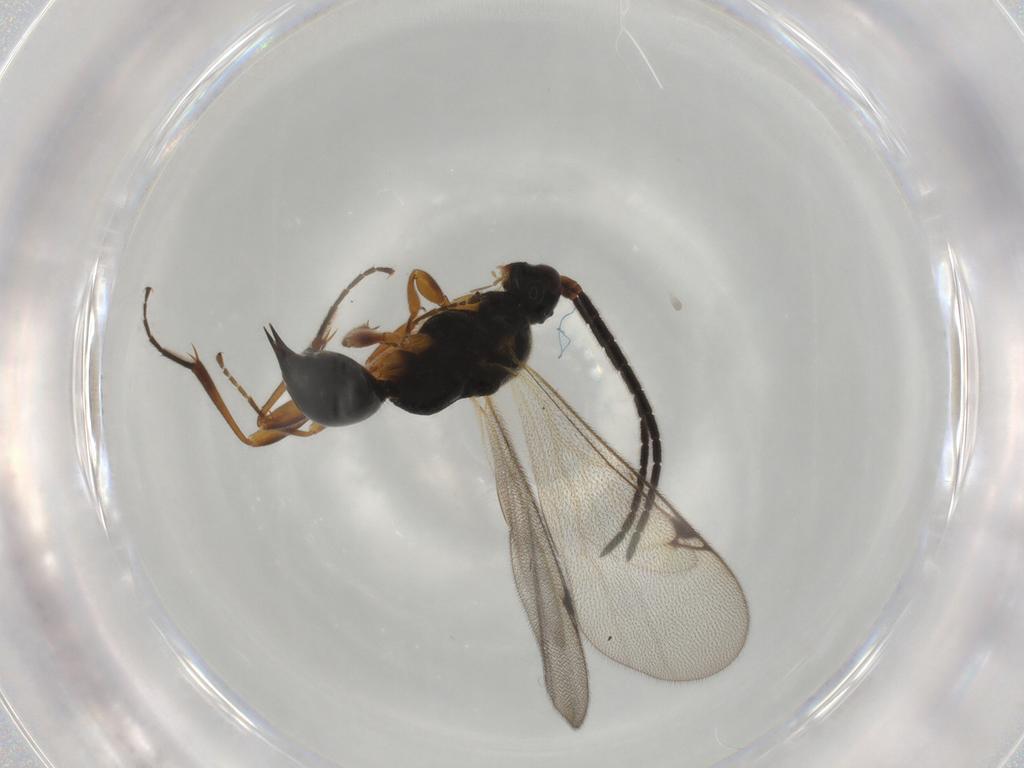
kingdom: Animalia
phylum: Arthropoda
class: Insecta
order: Hymenoptera
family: Proctotrupidae
